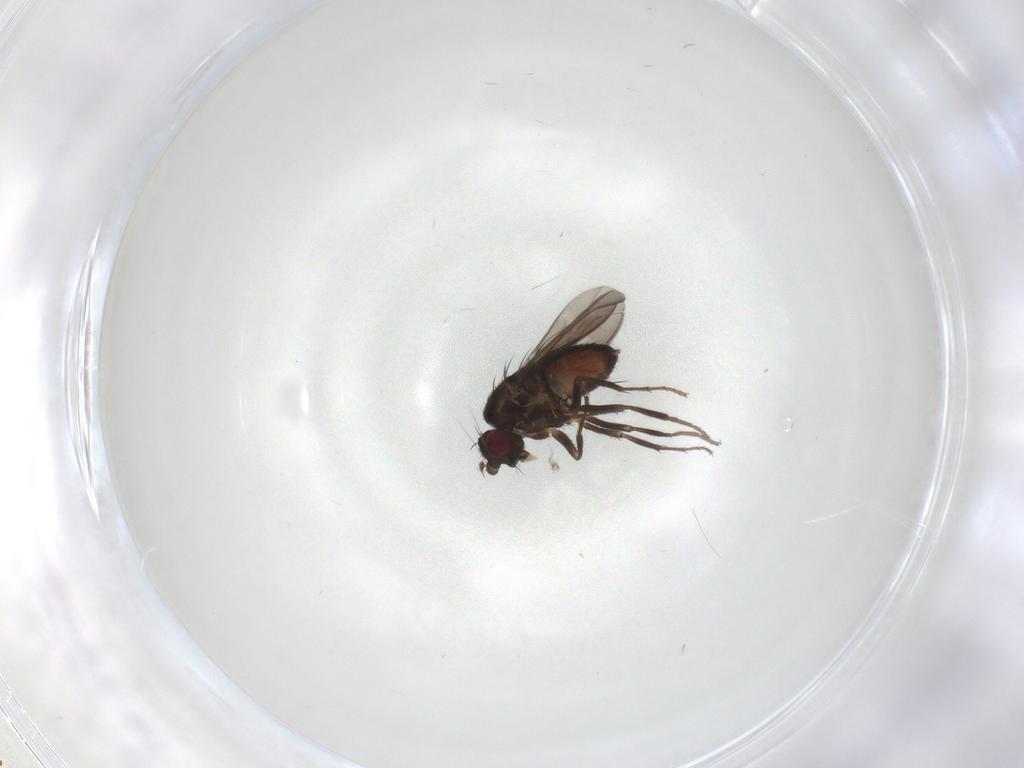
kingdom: Animalia
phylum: Arthropoda
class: Insecta
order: Diptera
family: Sphaeroceridae
